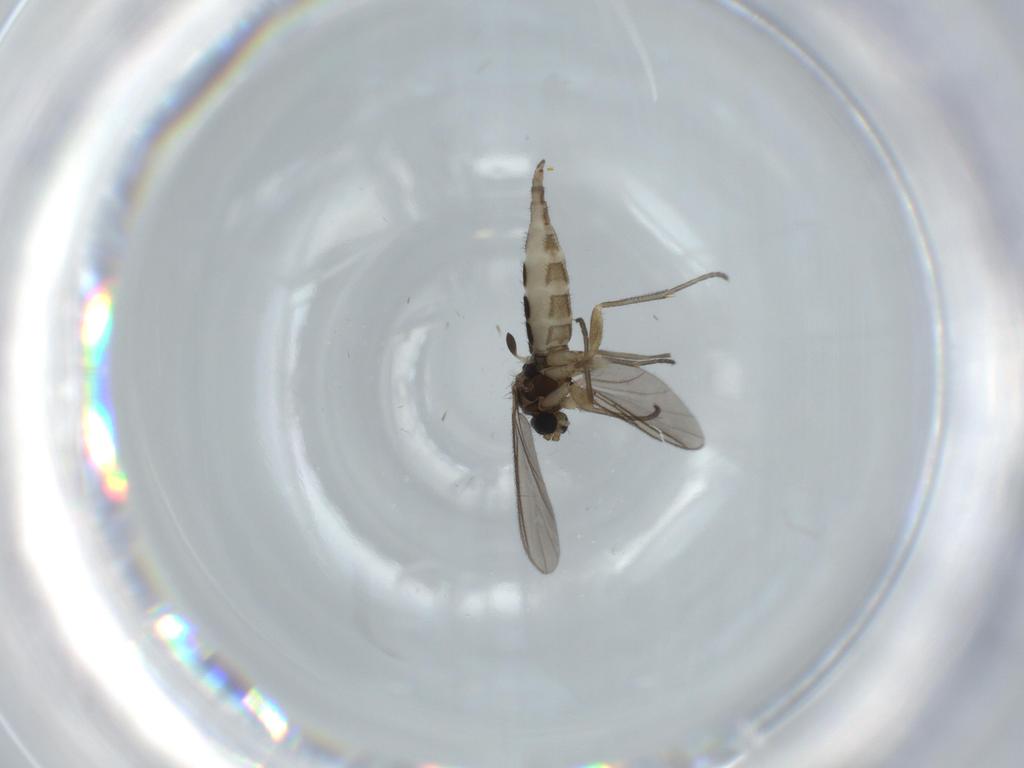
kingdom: Animalia
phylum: Arthropoda
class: Insecta
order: Diptera
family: Sciaridae
